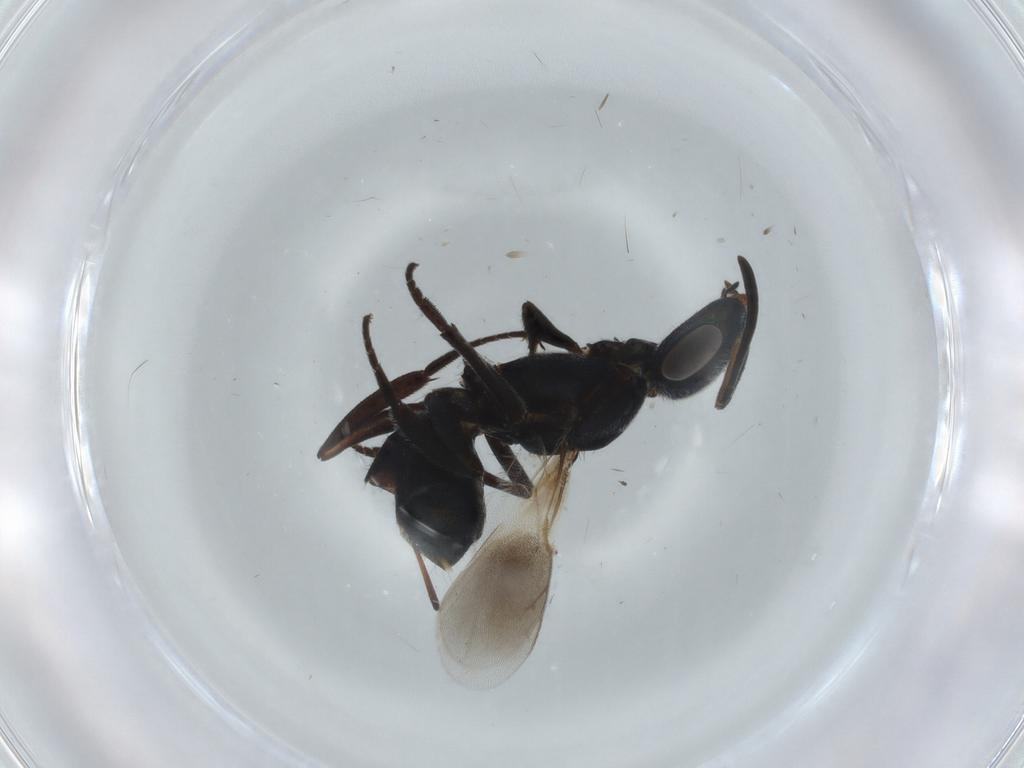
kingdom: Animalia
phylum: Arthropoda
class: Insecta
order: Hymenoptera
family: Eupelmidae
